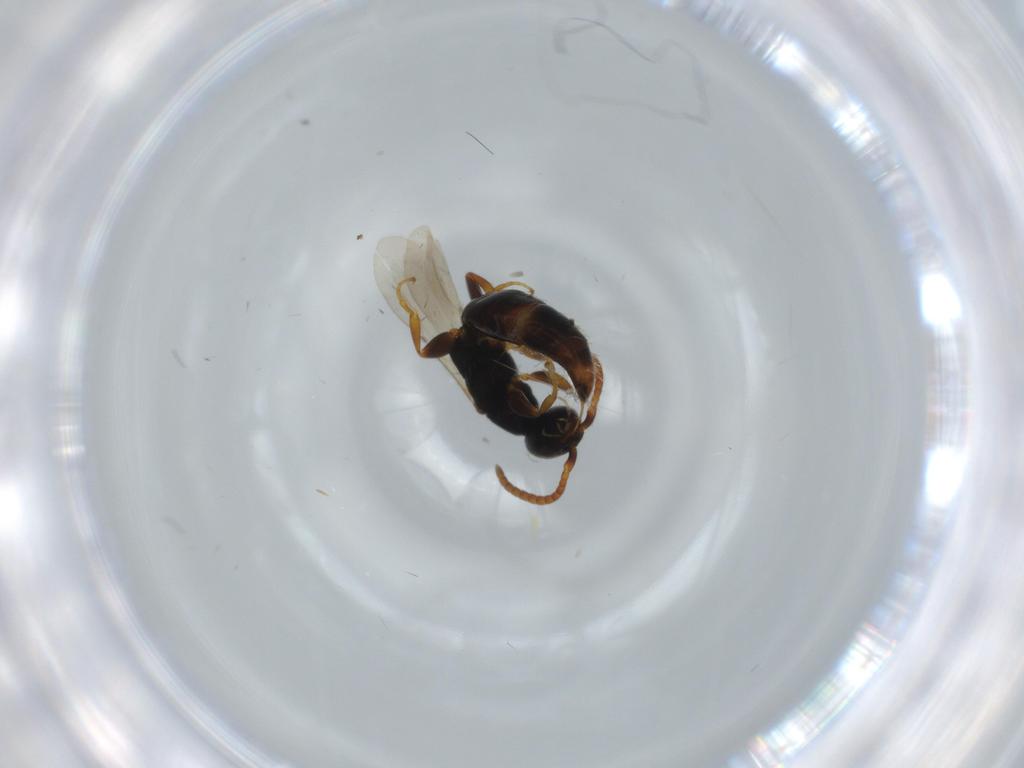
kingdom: Animalia
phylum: Arthropoda
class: Insecta
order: Hymenoptera
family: Bethylidae
